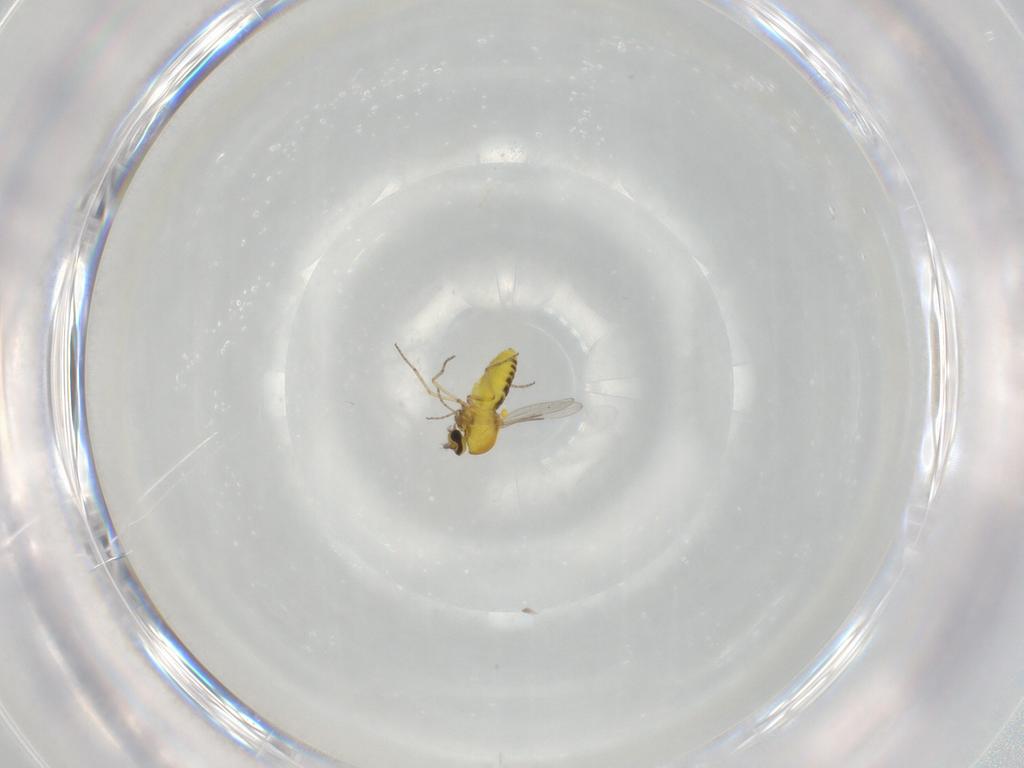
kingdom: Animalia
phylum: Arthropoda
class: Insecta
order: Diptera
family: Ceratopogonidae
